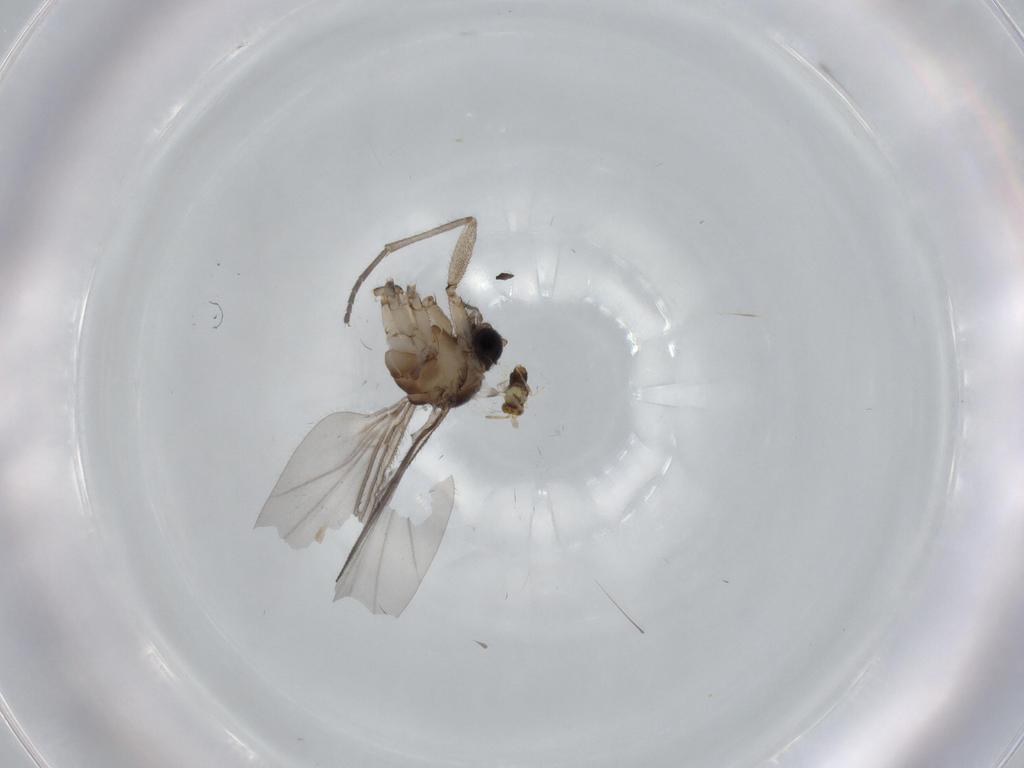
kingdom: Animalia
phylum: Arthropoda
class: Insecta
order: Diptera
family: Sciaridae
